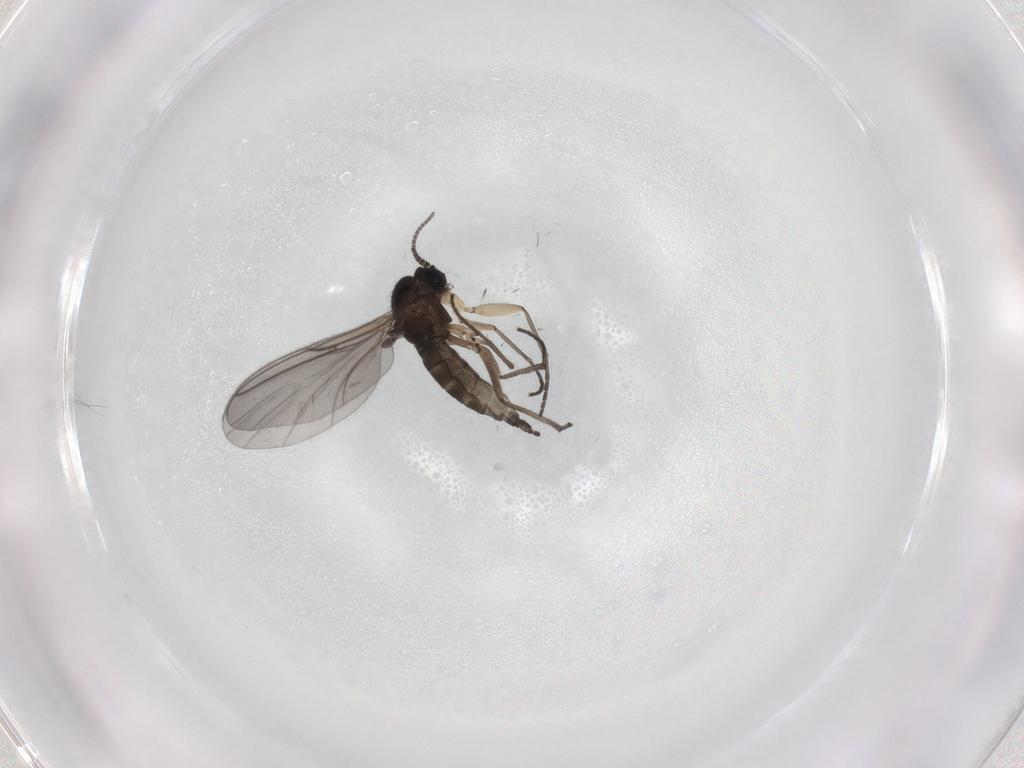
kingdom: Animalia
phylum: Arthropoda
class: Insecta
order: Diptera
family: Sciaridae
